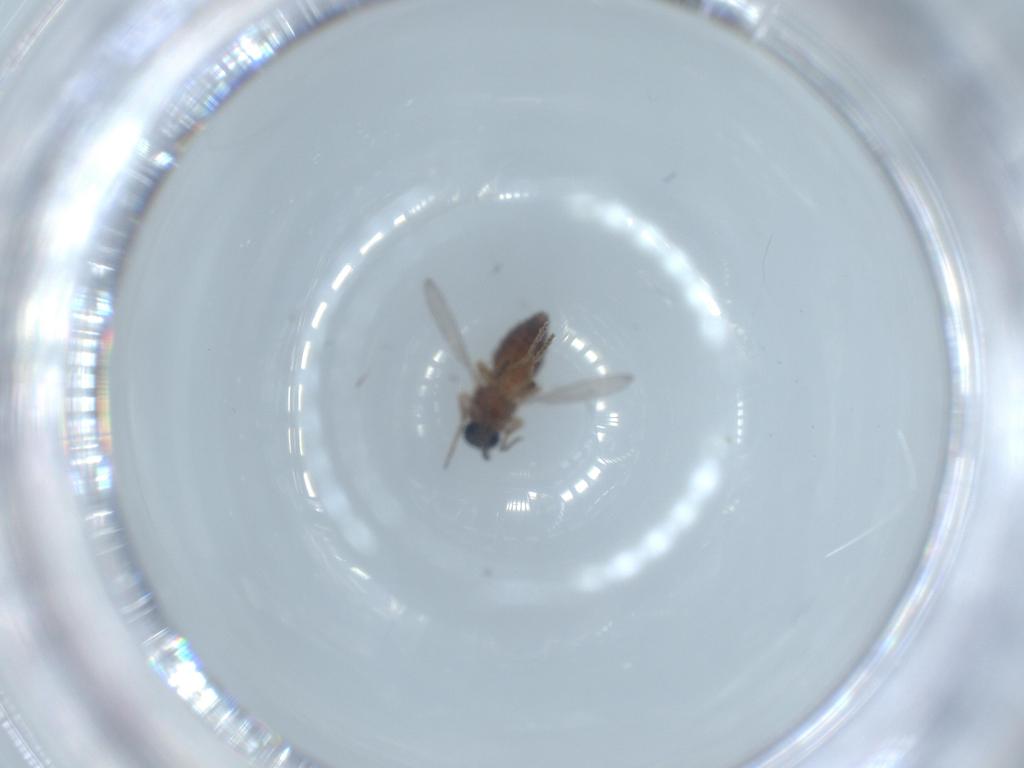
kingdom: Animalia
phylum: Arthropoda
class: Insecta
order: Diptera
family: Ceratopogonidae
